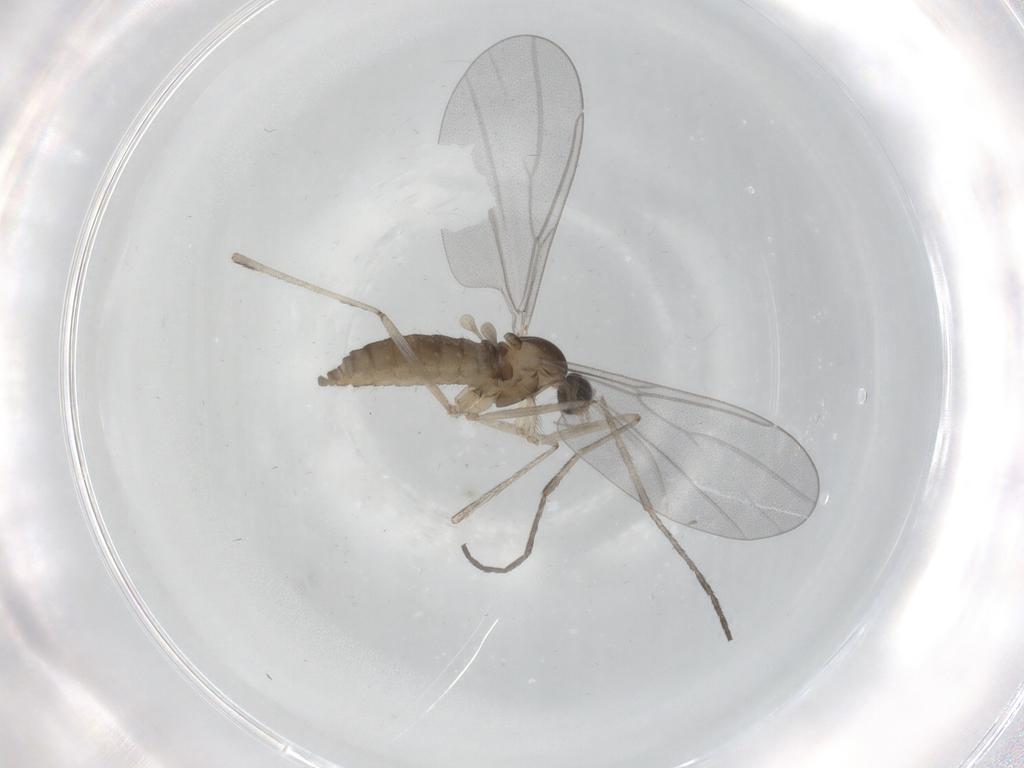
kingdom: Animalia
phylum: Arthropoda
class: Insecta
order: Diptera
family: Cecidomyiidae
